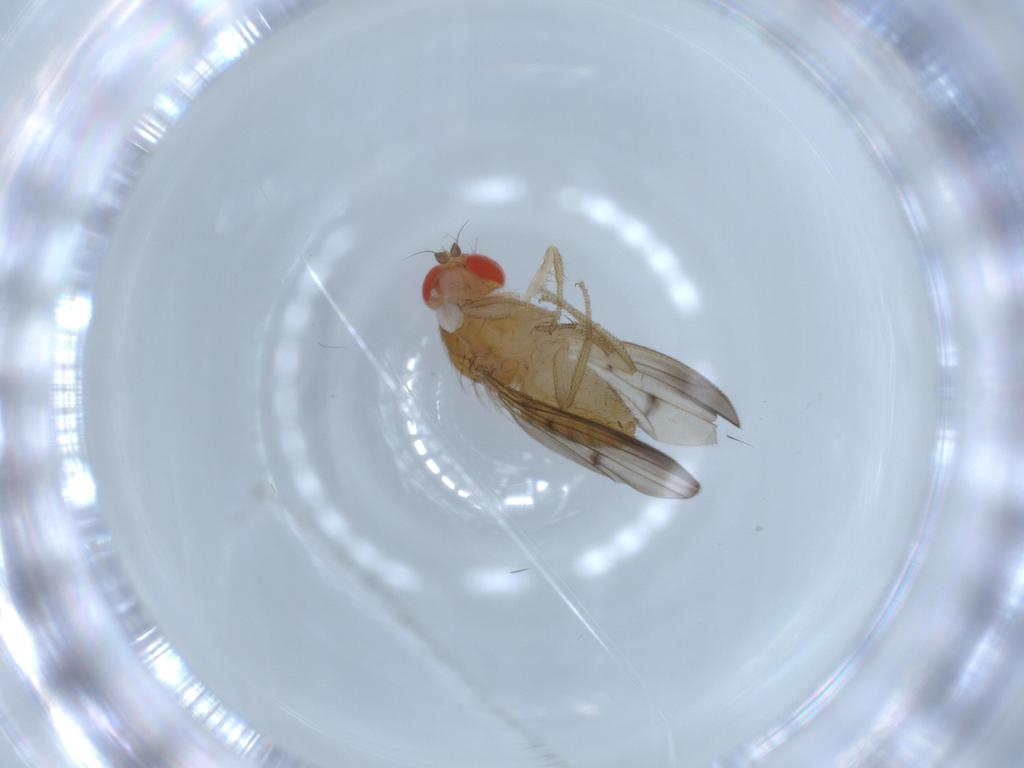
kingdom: Animalia
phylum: Arthropoda
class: Insecta
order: Diptera
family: Drosophilidae
